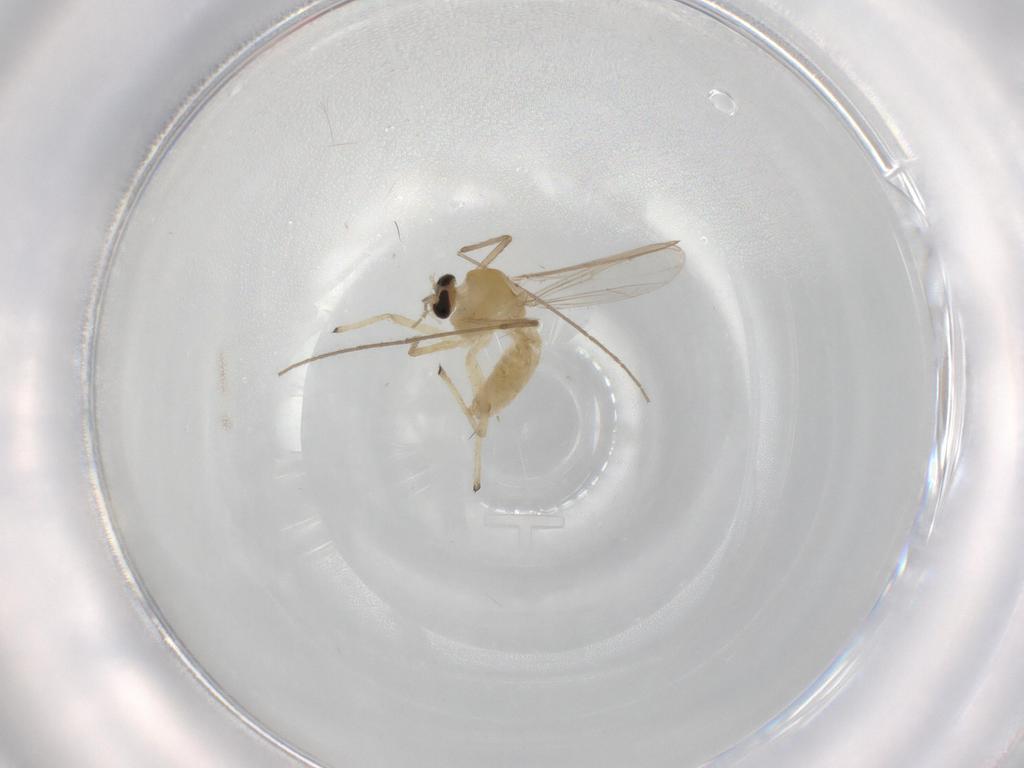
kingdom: Animalia
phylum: Arthropoda
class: Insecta
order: Diptera
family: Chironomidae
